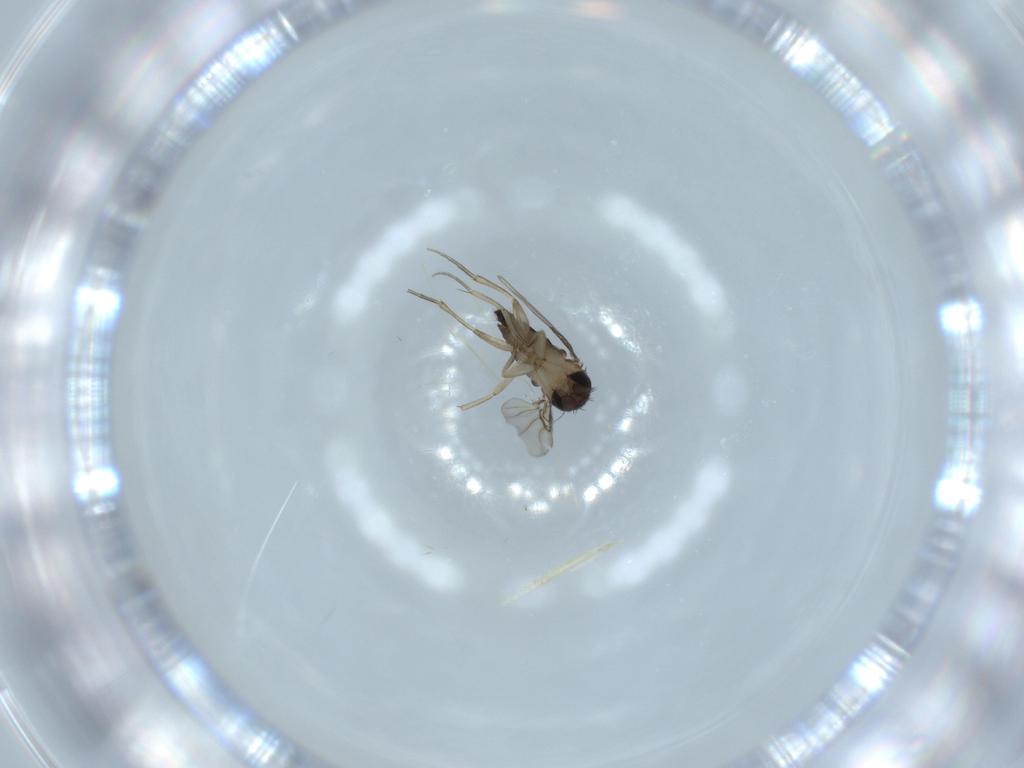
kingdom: Animalia
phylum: Arthropoda
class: Insecta
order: Diptera
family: Phoridae
